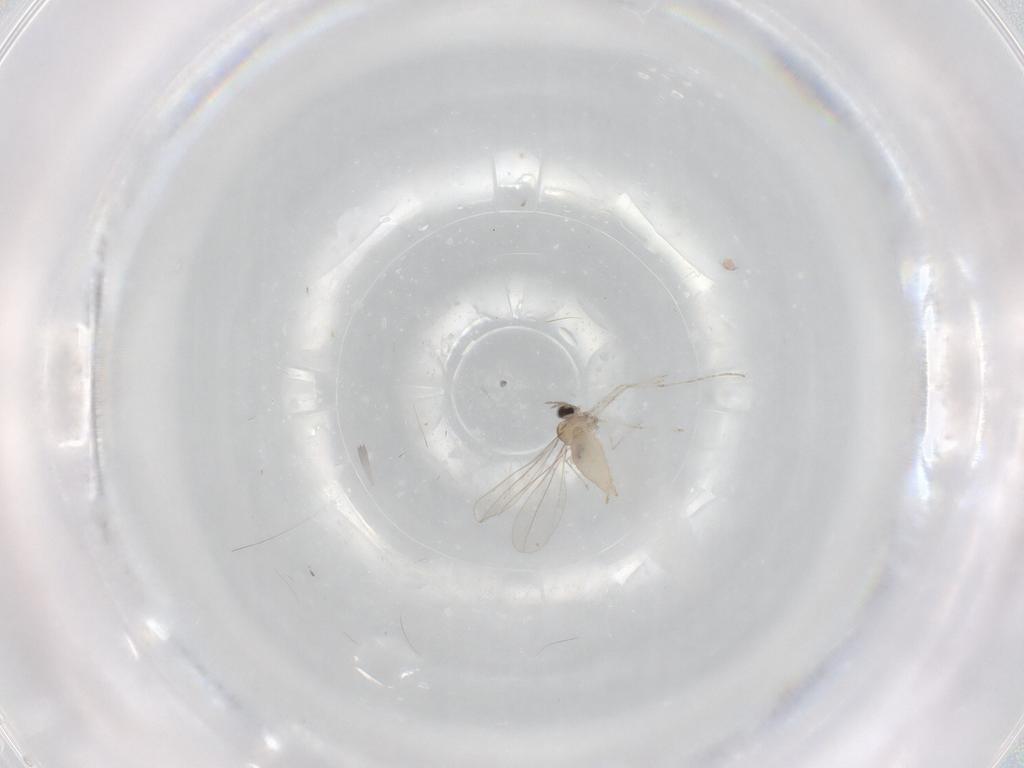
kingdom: Animalia
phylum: Arthropoda
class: Insecta
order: Diptera
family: Cecidomyiidae
